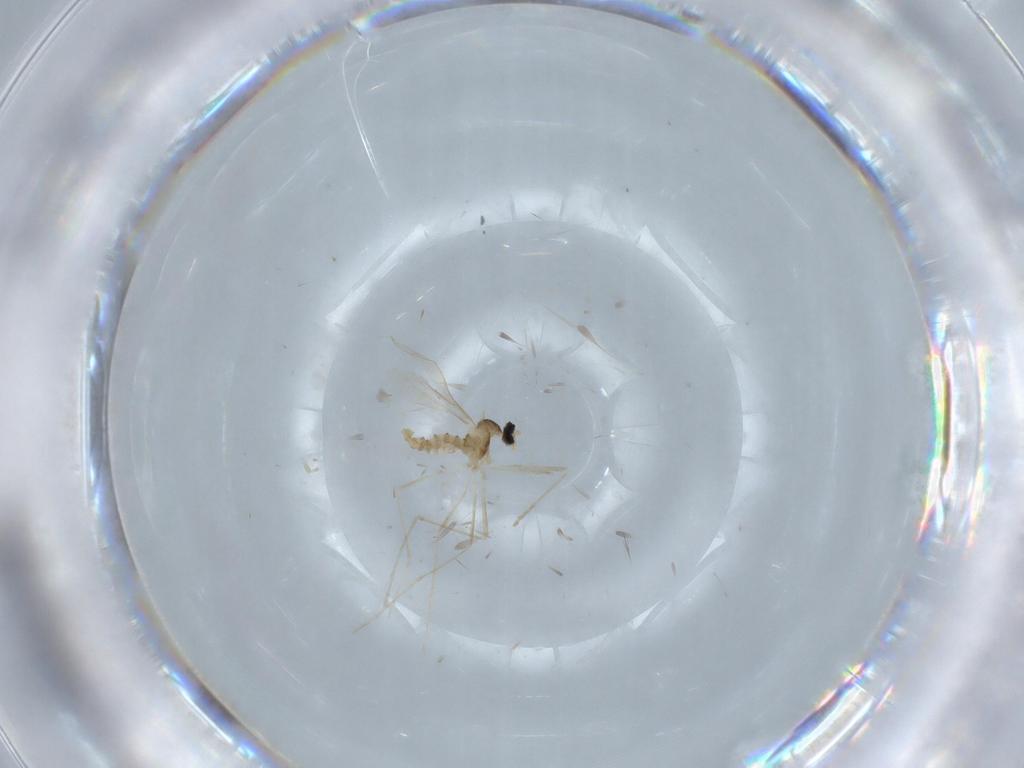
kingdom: Animalia
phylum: Arthropoda
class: Insecta
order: Diptera
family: Cecidomyiidae
